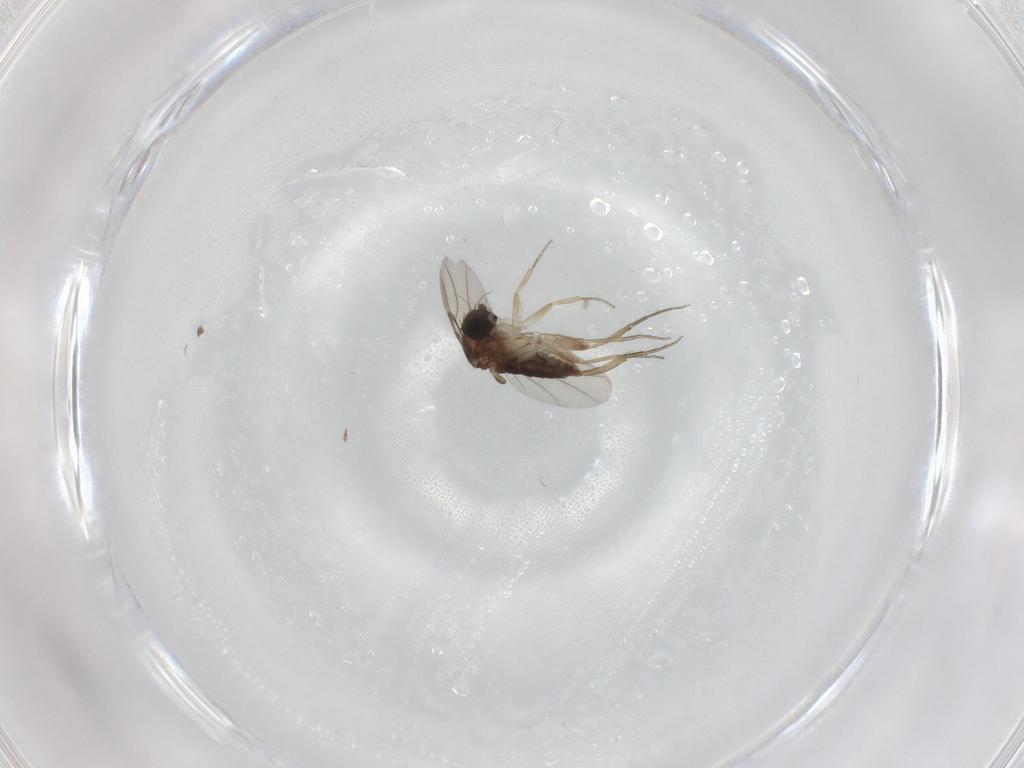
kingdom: Animalia
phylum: Arthropoda
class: Insecta
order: Diptera
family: Phoridae
